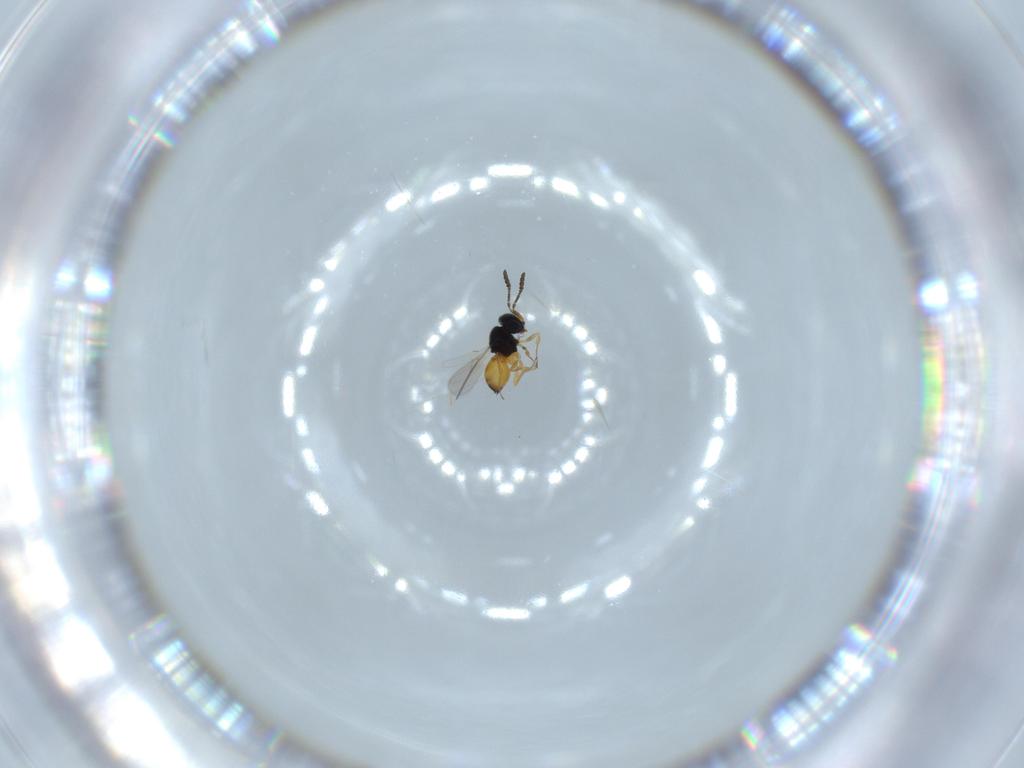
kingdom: Animalia
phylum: Arthropoda
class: Insecta
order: Hymenoptera
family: Scelionidae
